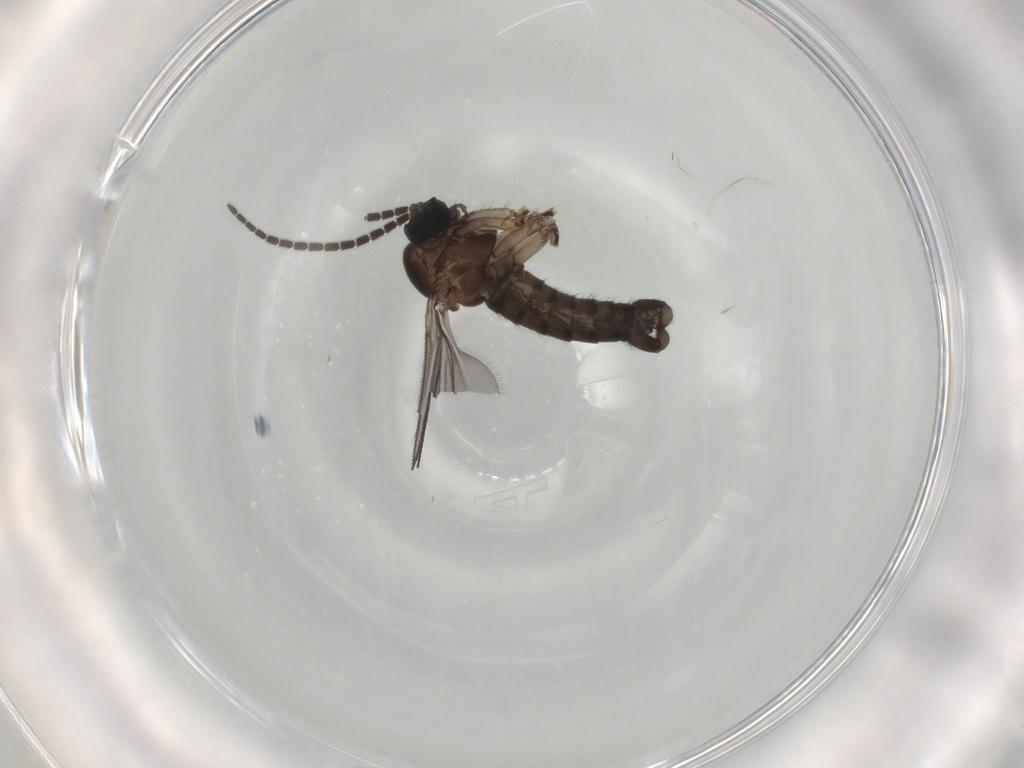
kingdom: Animalia
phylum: Arthropoda
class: Insecta
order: Diptera
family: Sciaridae
